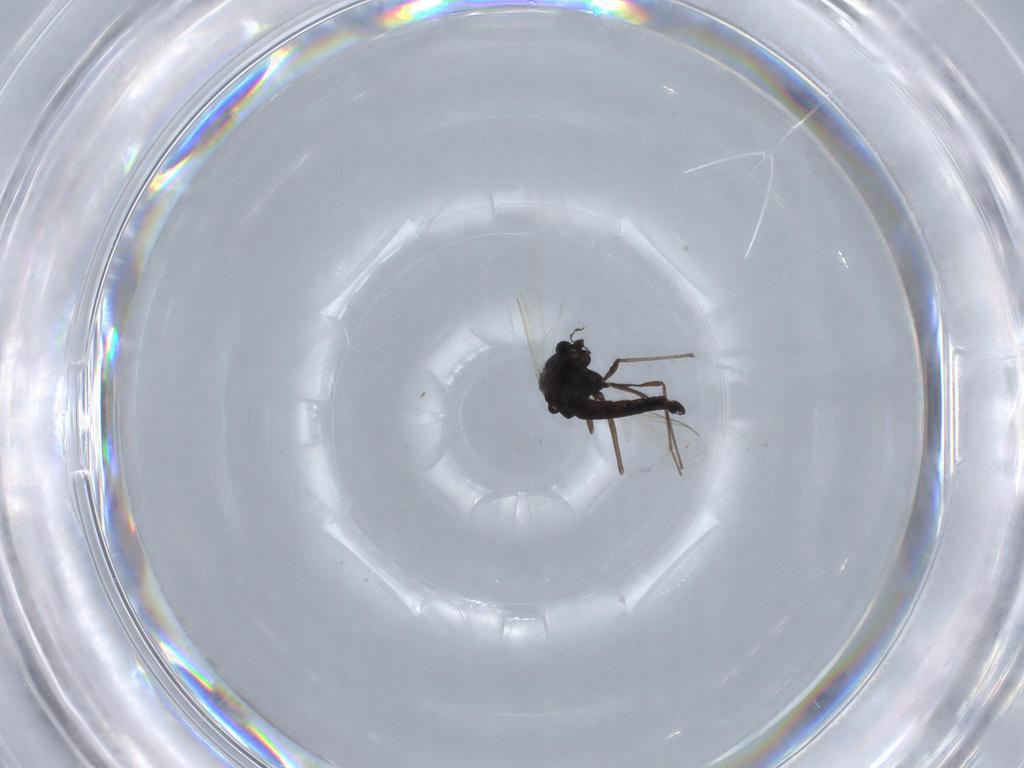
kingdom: Animalia
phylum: Arthropoda
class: Insecta
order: Diptera
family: Chironomidae
